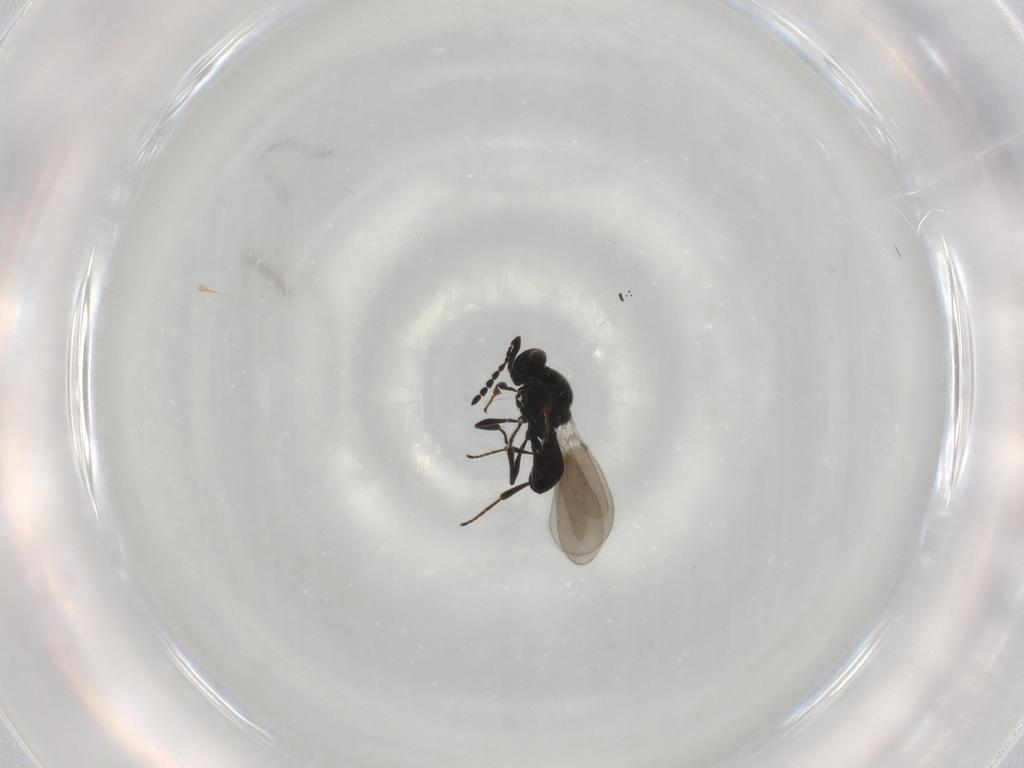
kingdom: Animalia
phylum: Arthropoda
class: Insecta
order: Hymenoptera
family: Platygastridae
